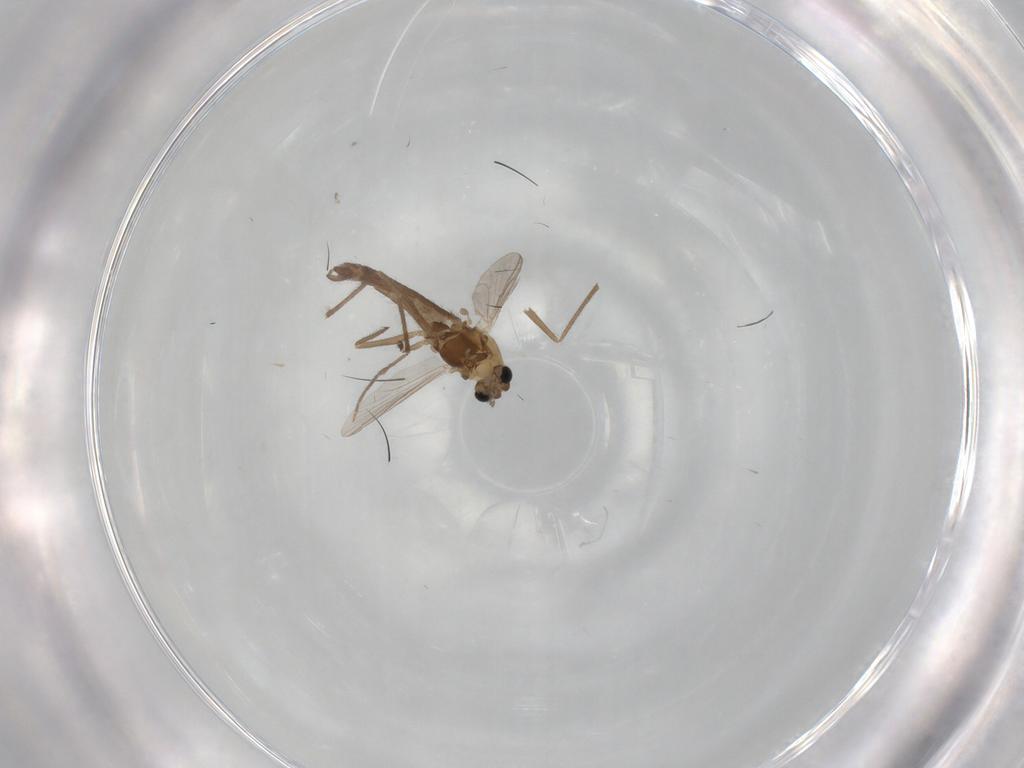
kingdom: Animalia
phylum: Arthropoda
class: Insecta
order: Diptera
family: Chironomidae
